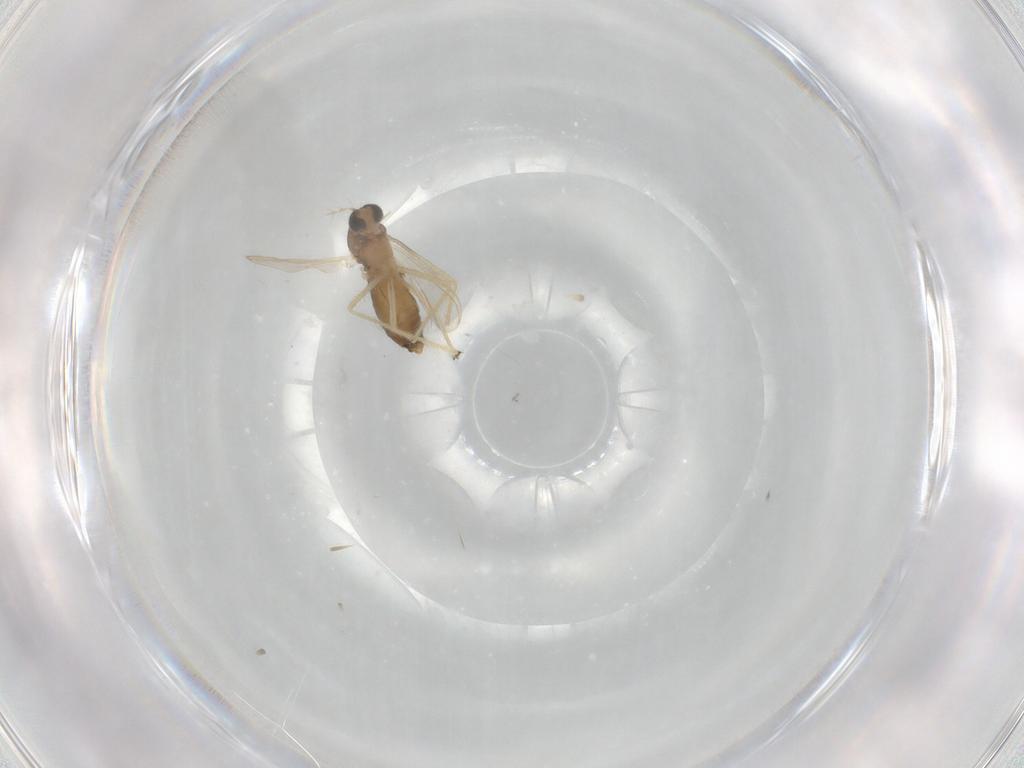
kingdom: Animalia
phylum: Arthropoda
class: Insecta
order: Diptera
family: Chironomidae
